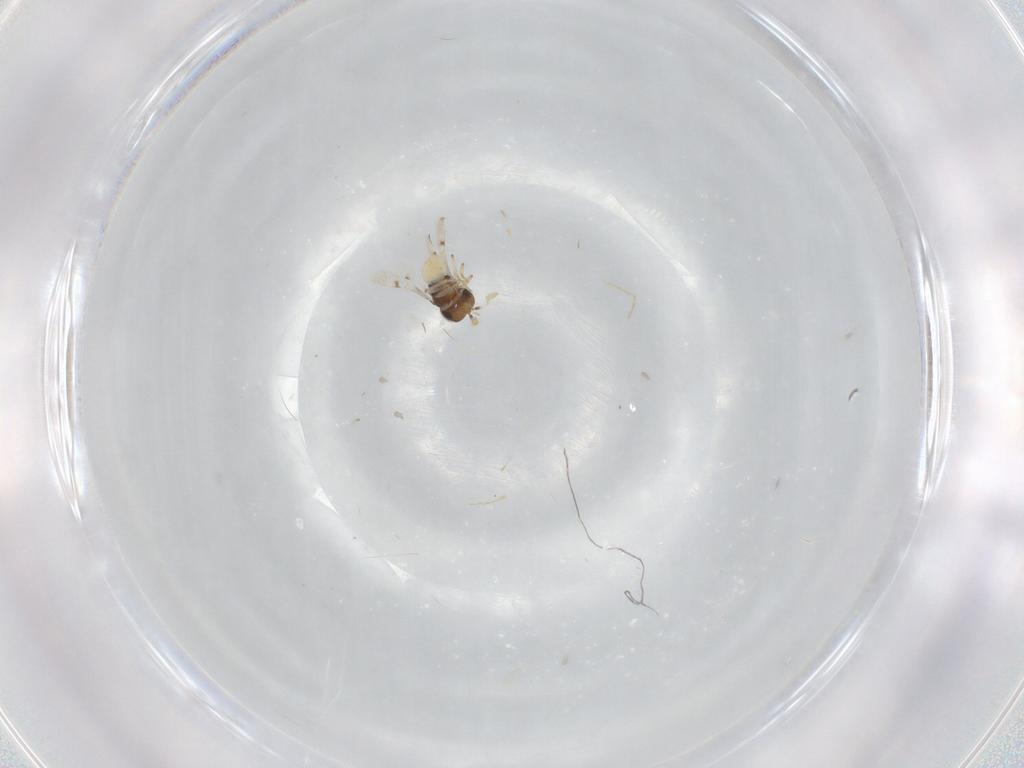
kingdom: Animalia
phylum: Arthropoda
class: Insecta
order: Hymenoptera
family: Scelionidae
